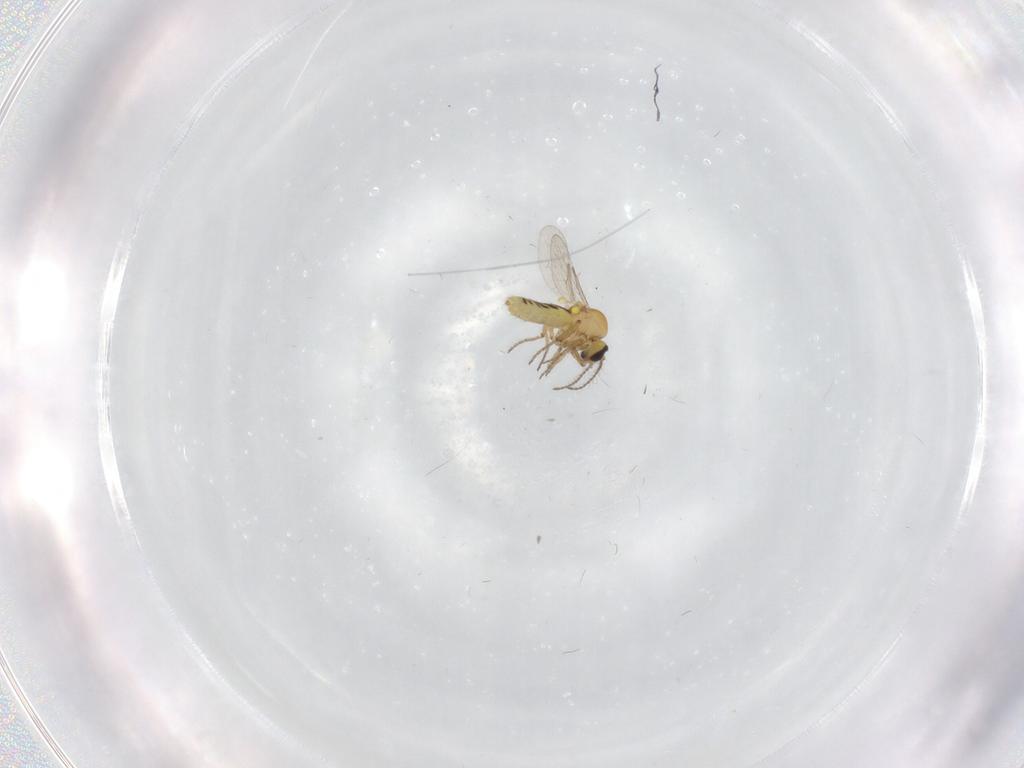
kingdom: Animalia
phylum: Arthropoda
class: Insecta
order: Diptera
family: Ceratopogonidae
